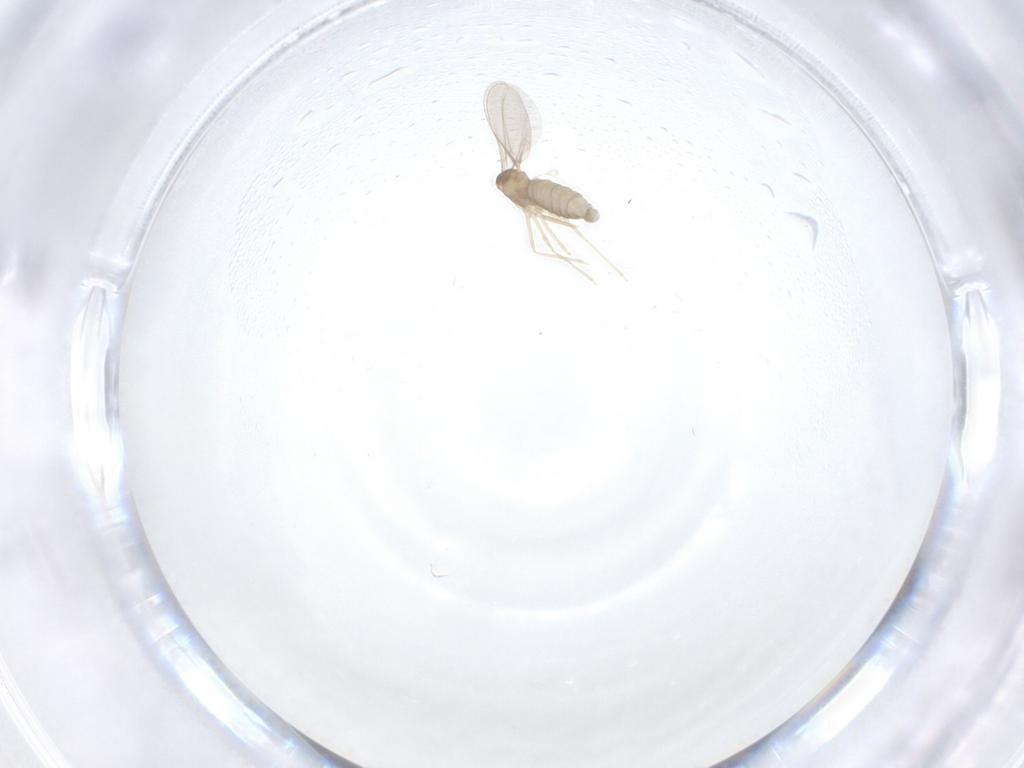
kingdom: Animalia
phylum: Arthropoda
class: Insecta
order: Diptera
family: Cecidomyiidae
